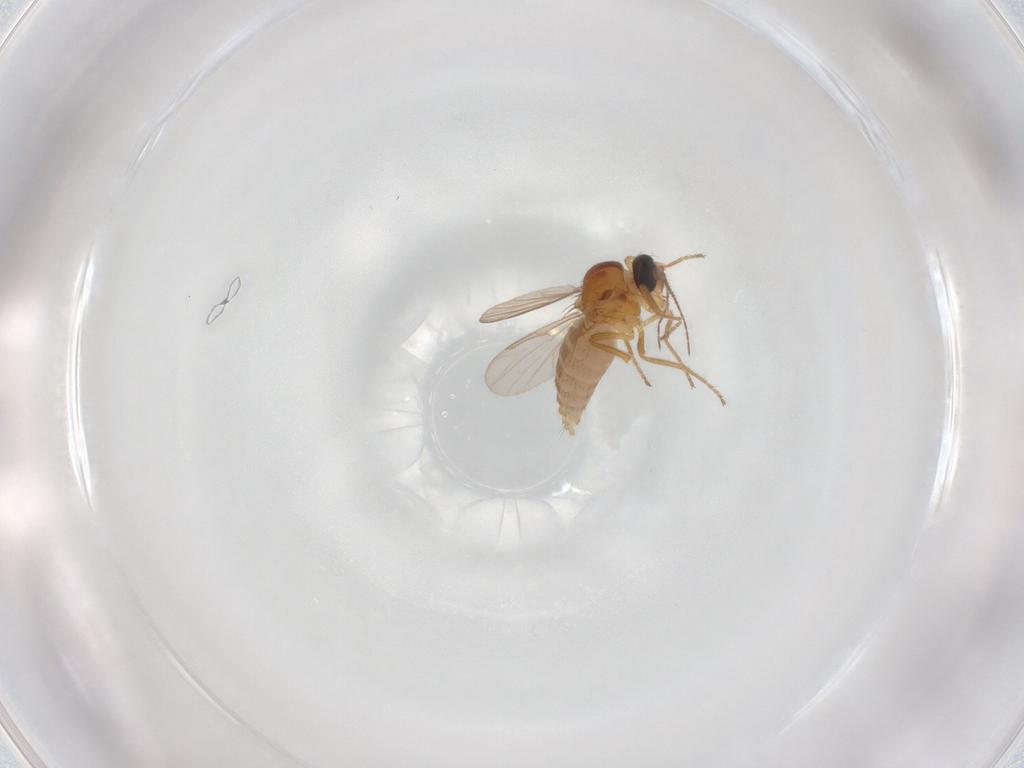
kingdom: Animalia
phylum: Arthropoda
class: Insecta
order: Diptera
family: Ceratopogonidae
